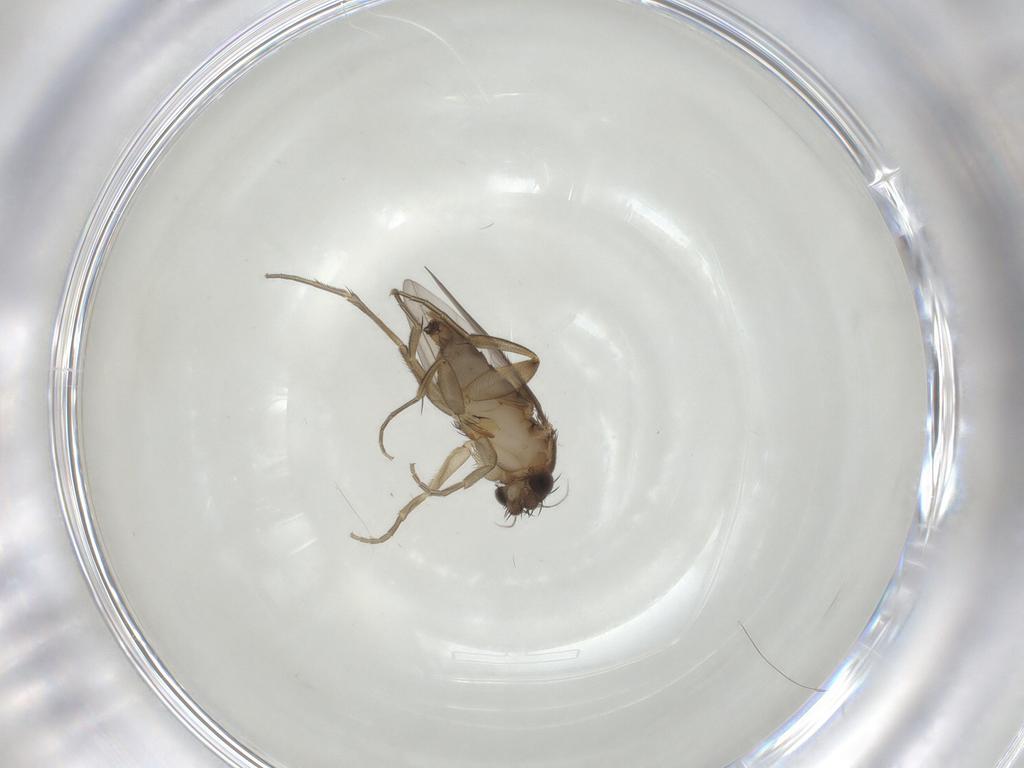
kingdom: Animalia
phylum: Arthropoda
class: Insecta
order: Diptera
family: Phoridae
